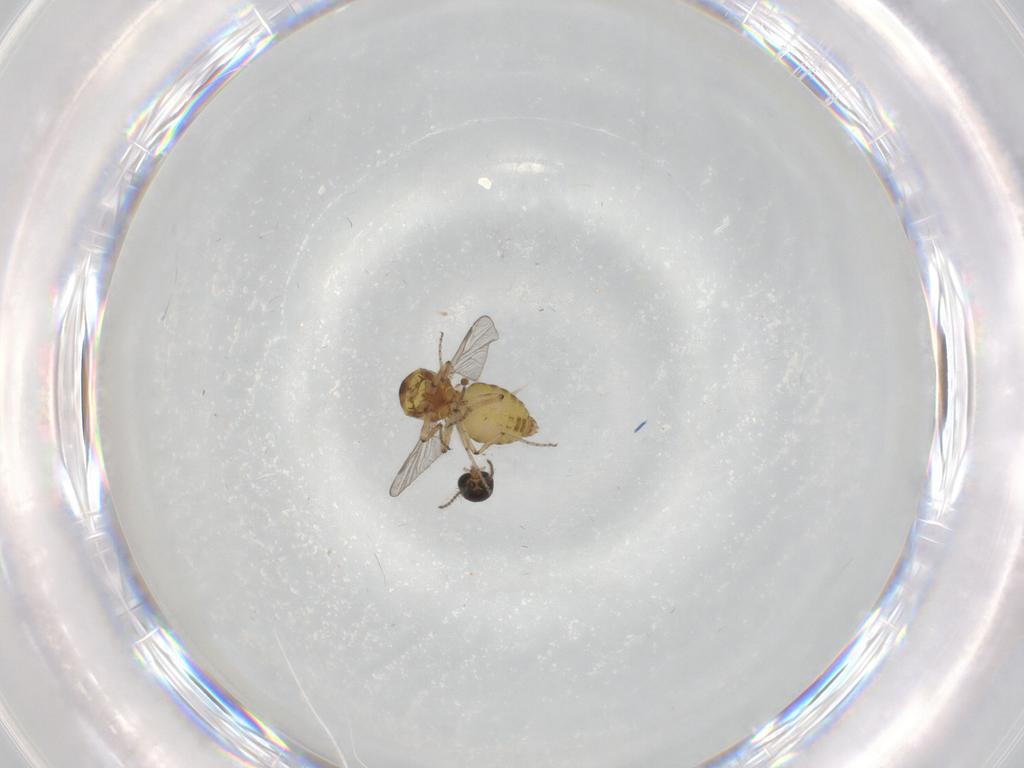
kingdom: Animalia
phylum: Arthropoda
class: Insecta
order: Diptera
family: Ceratopogonidae
